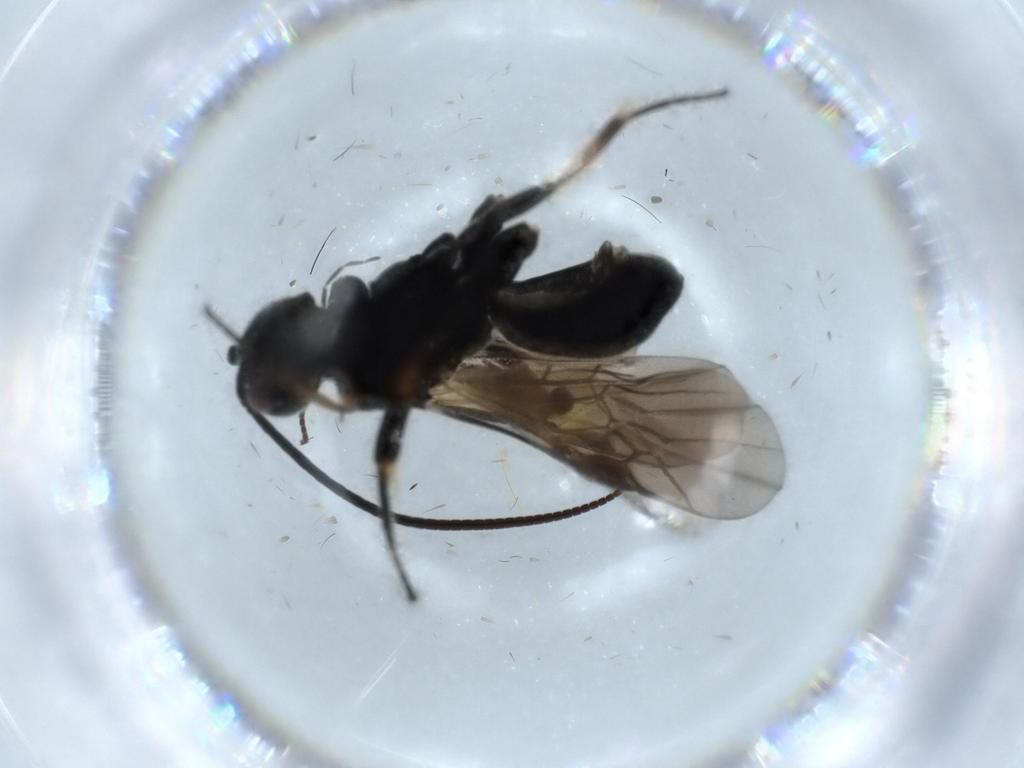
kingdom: Animalia
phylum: Arthropoda
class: Insecta
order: Hymenoptera
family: Braconidae
